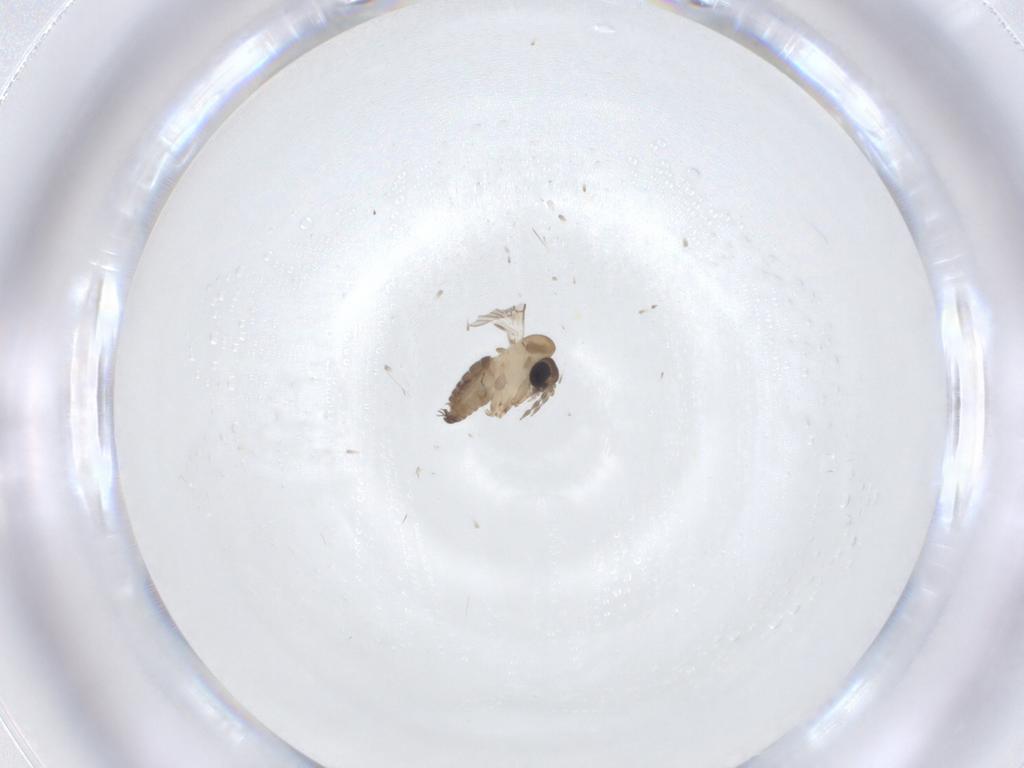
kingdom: Animalia
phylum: Arthropoda
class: Insecta
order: Diptera
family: Psychodidae
